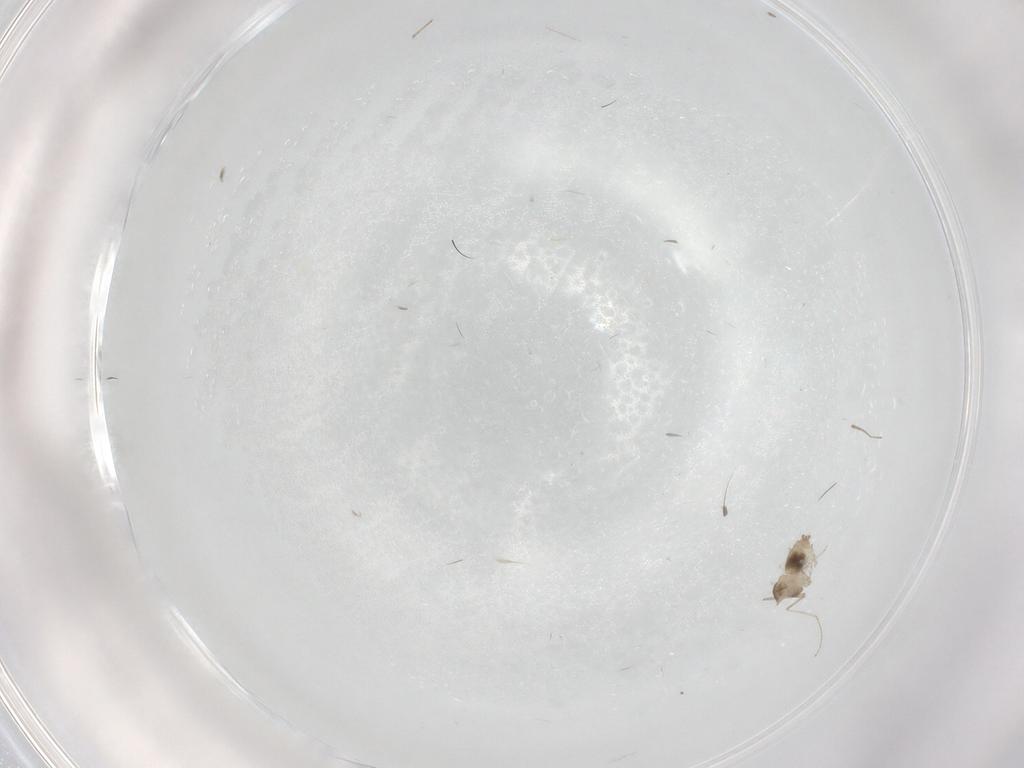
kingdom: Animalia
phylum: Arthropoda
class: Insecta
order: Diptera
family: Cecidomyiidae
